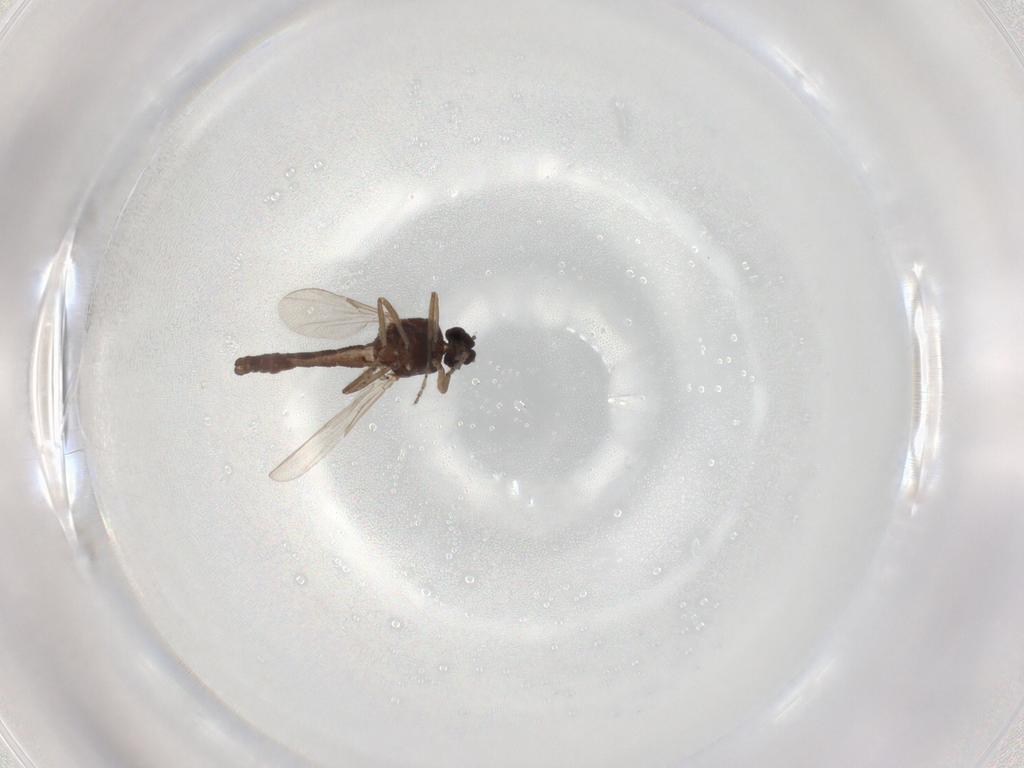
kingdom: Animalia
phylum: Arthropoda
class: Insecta
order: Diptera
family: Ceratopogonidae
